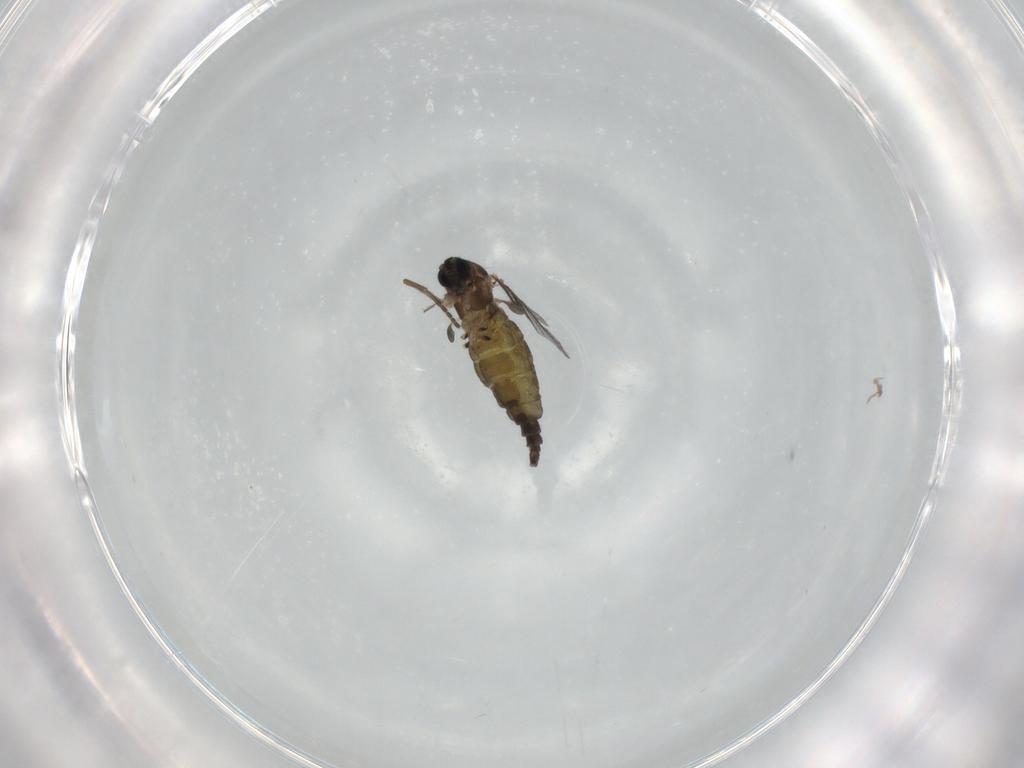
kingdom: Animalia
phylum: Arthropoda
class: Insecta
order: Diptera
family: Sciaridae
